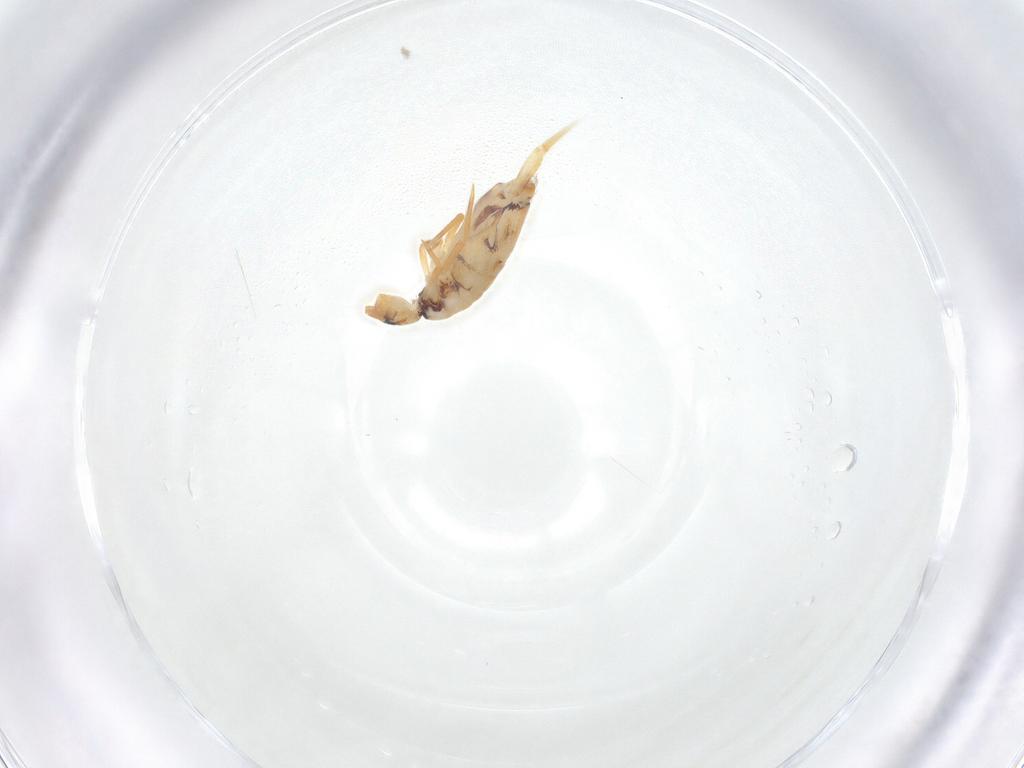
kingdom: Animalia
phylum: Arthropoda
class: Collembola
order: Entomobryomorpha
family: Entomobryidae
